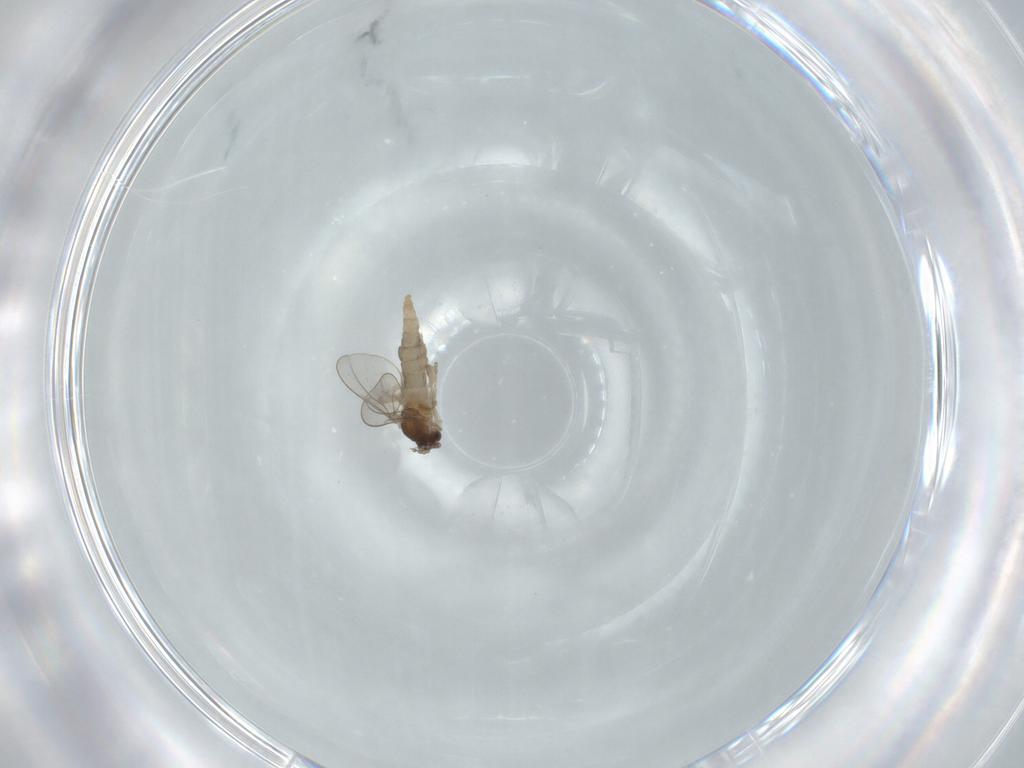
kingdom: Animalia
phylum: Arthropoda
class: Insecta
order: Diptera
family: Cecidomyiidae
